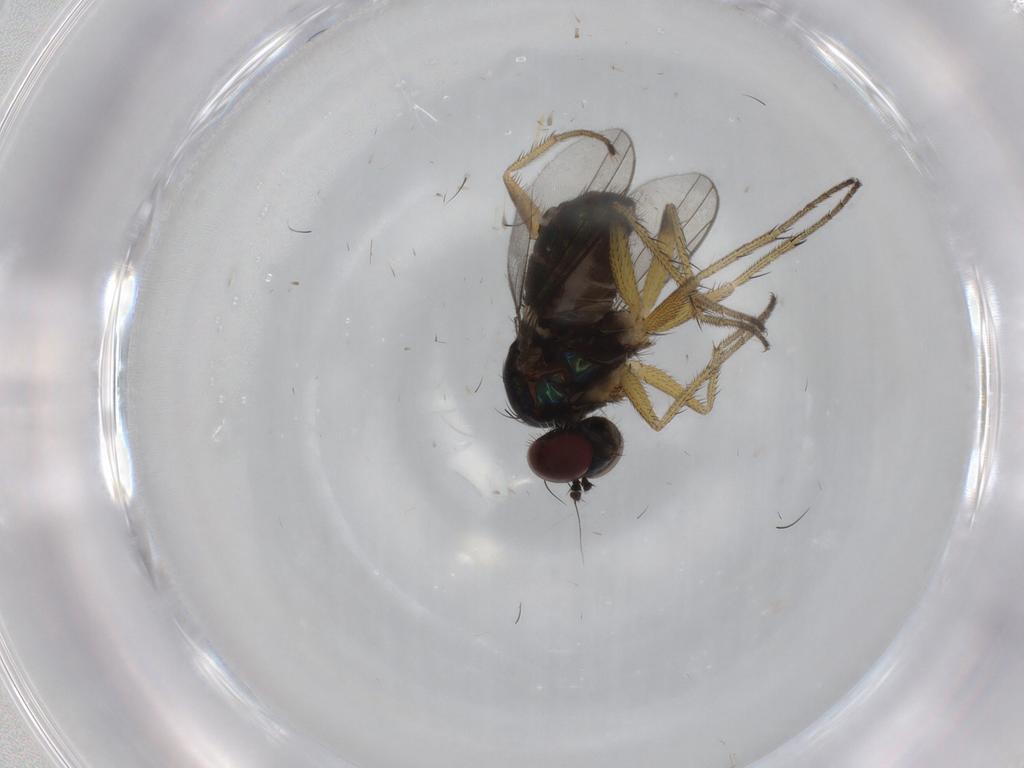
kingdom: Animalia
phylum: Arthropoda
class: Insecta
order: Diptera
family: Dolichopodidae
